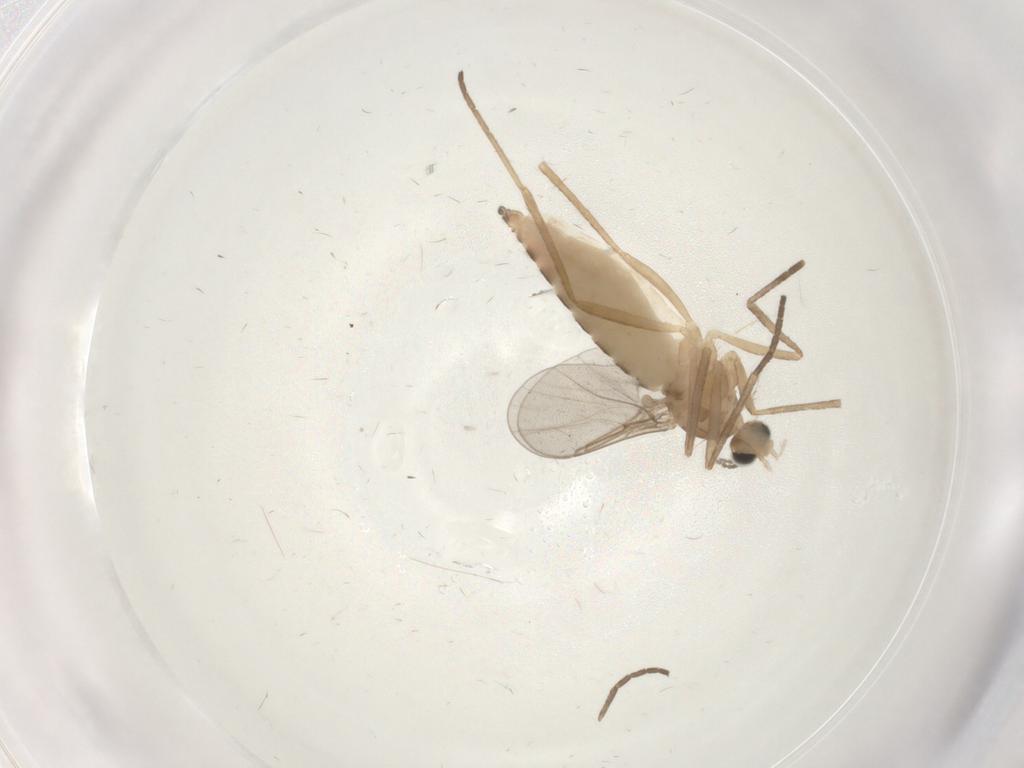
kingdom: Animalia
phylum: Arthropoda
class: Insecta
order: Diptera
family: Cecidomyiidae
